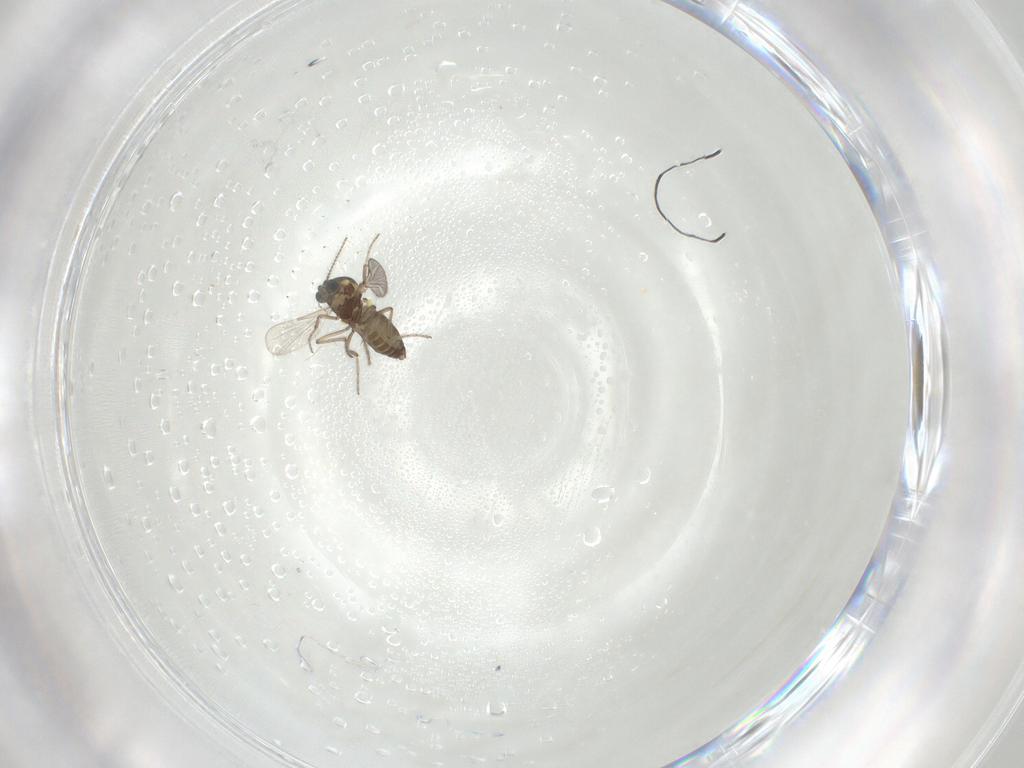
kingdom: Animalia
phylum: Arthropoda
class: Insecta
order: Diptera
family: Ceratopogonidae
